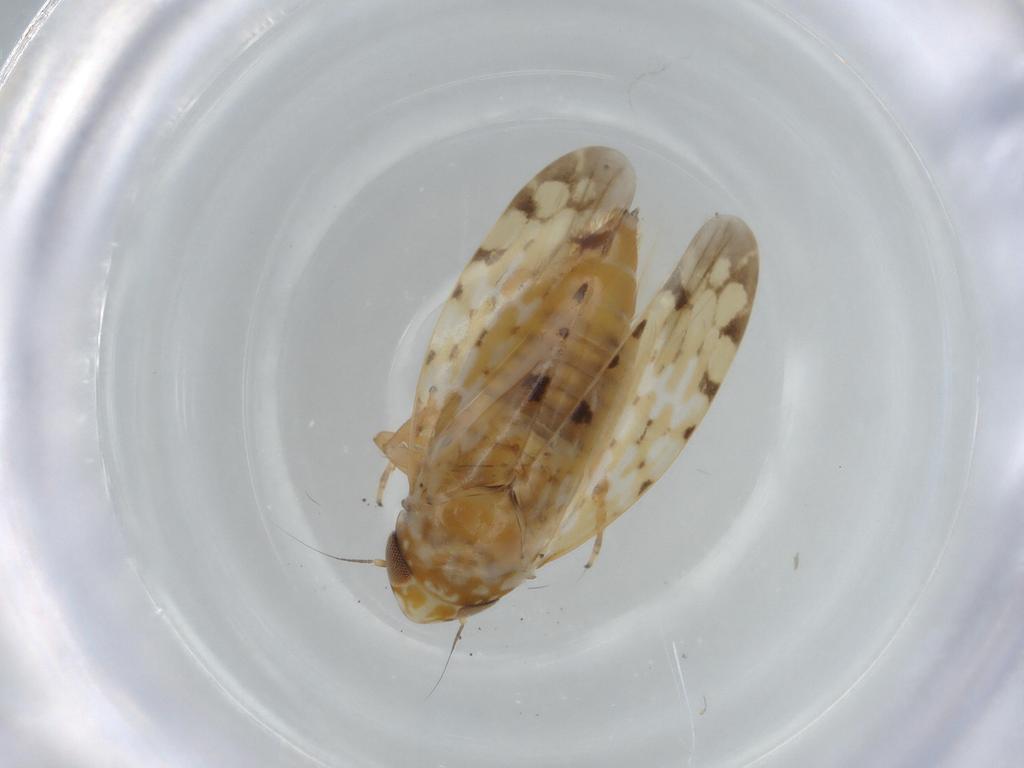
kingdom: Animalia
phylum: Arthropoda
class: Insecta
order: Hemiptera
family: Cicadellidae
